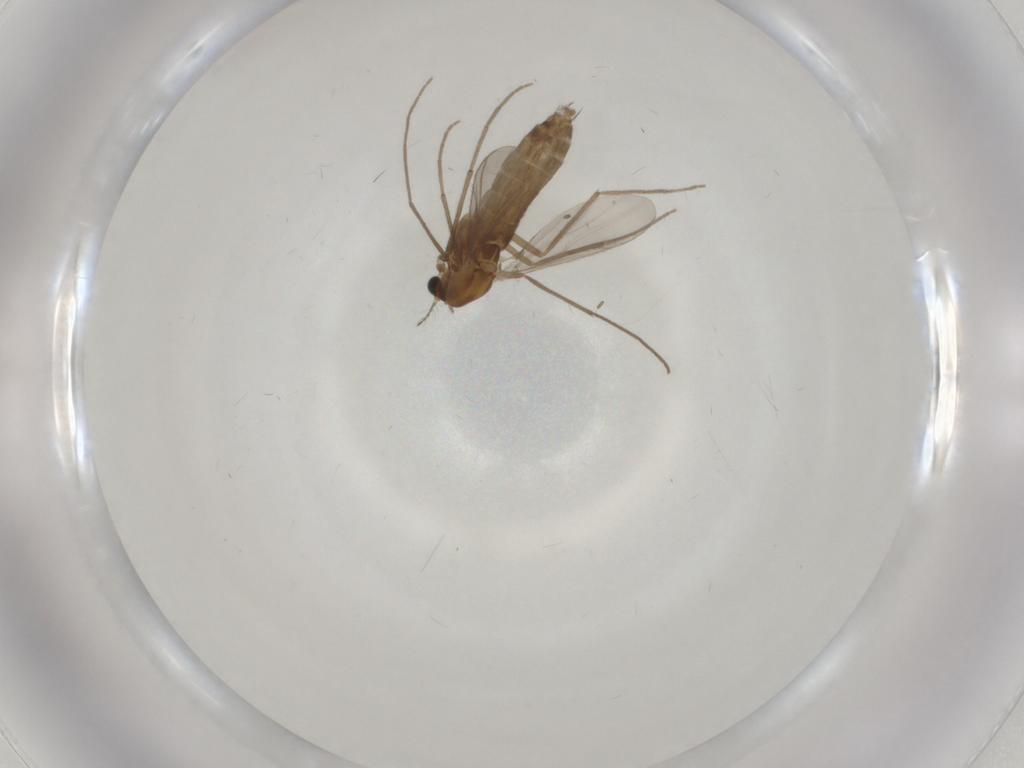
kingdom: Animalia
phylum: Arthropoda
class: Insecta
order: Diptera
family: Chironomidae
